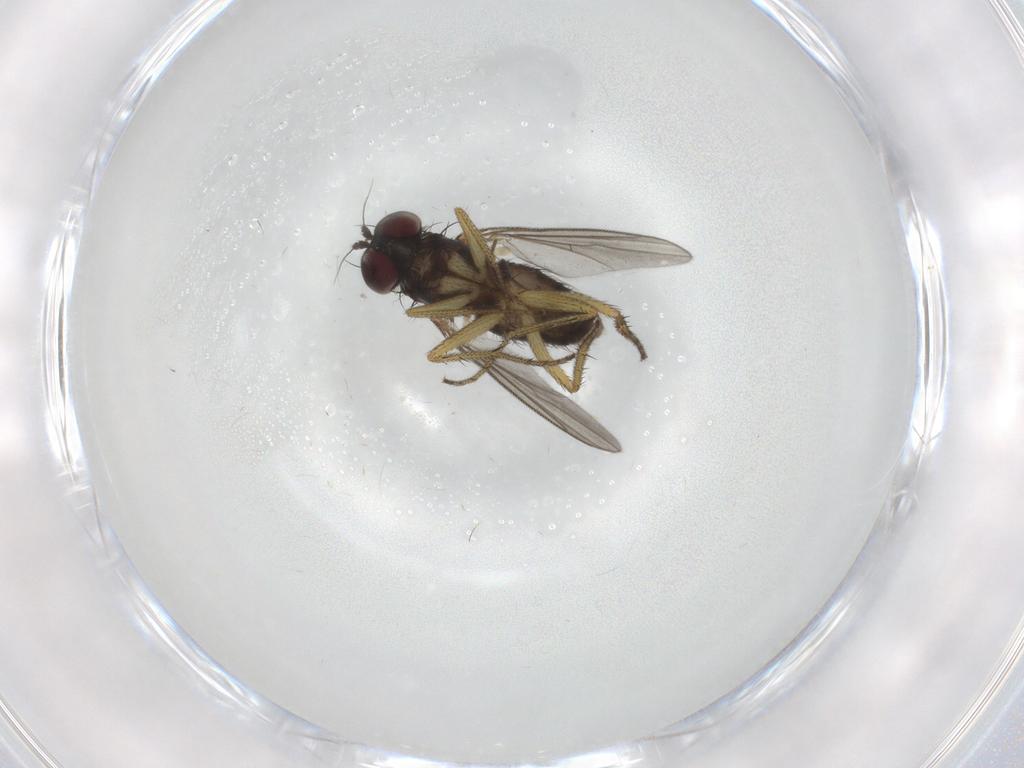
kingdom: Animalia
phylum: Arthropoda
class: Insecta
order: Diptera
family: Chironomidae
